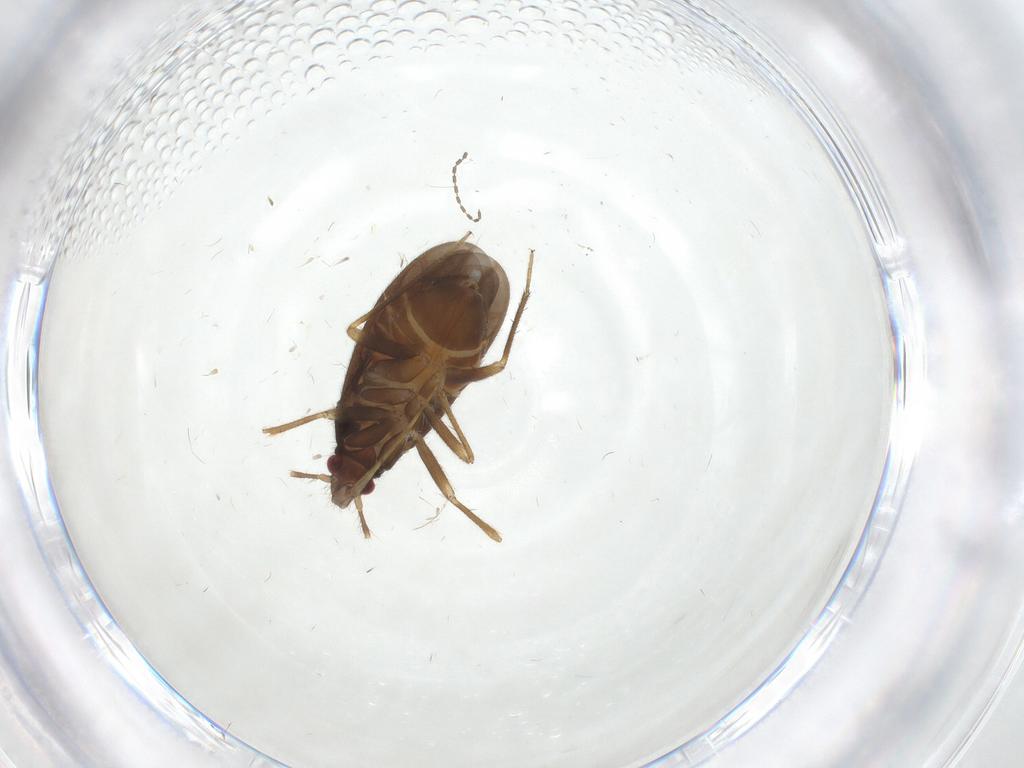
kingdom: Animalia
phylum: Arthropoda
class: Insecta
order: Hemiptera
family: Ceratocombidae
